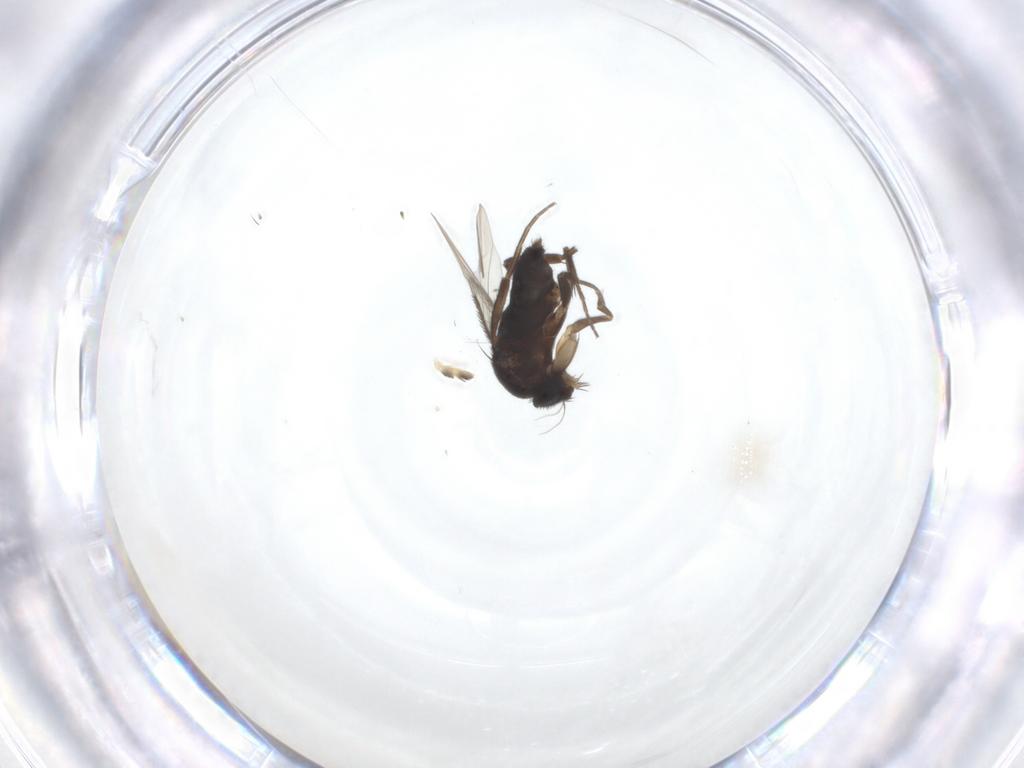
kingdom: Animalia
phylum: Arthropoda
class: Insecta
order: Diptera
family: Phoridae
